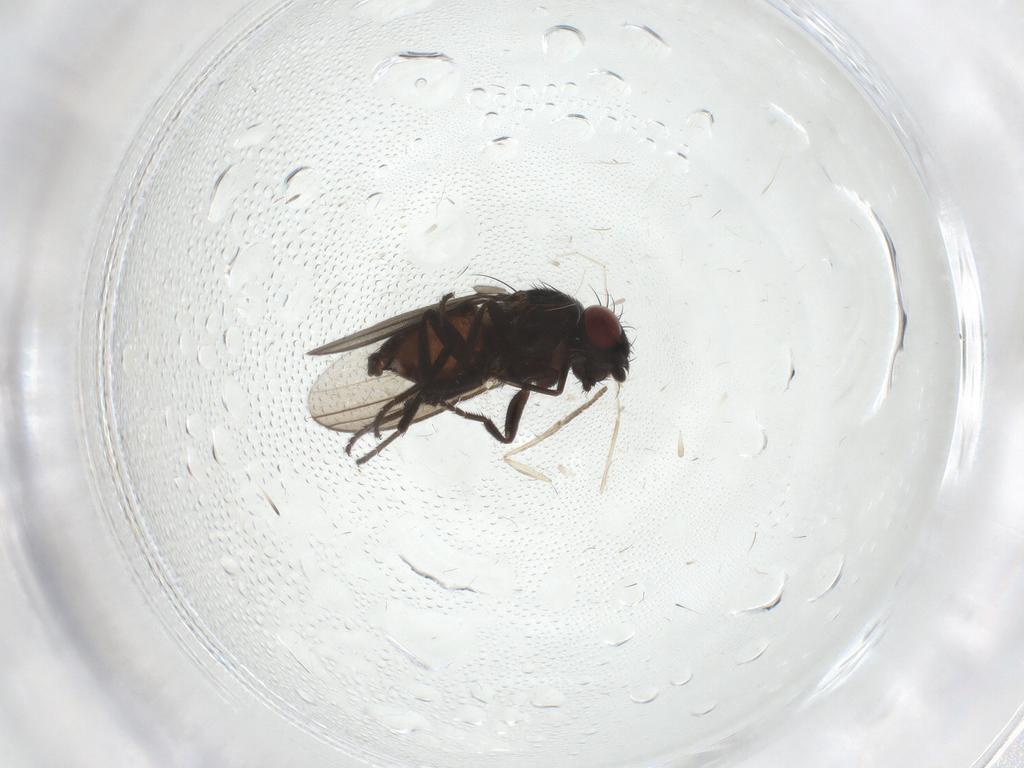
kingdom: Animalia
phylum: Arthropoda
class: Insecta
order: Diptera
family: Milichiidae
